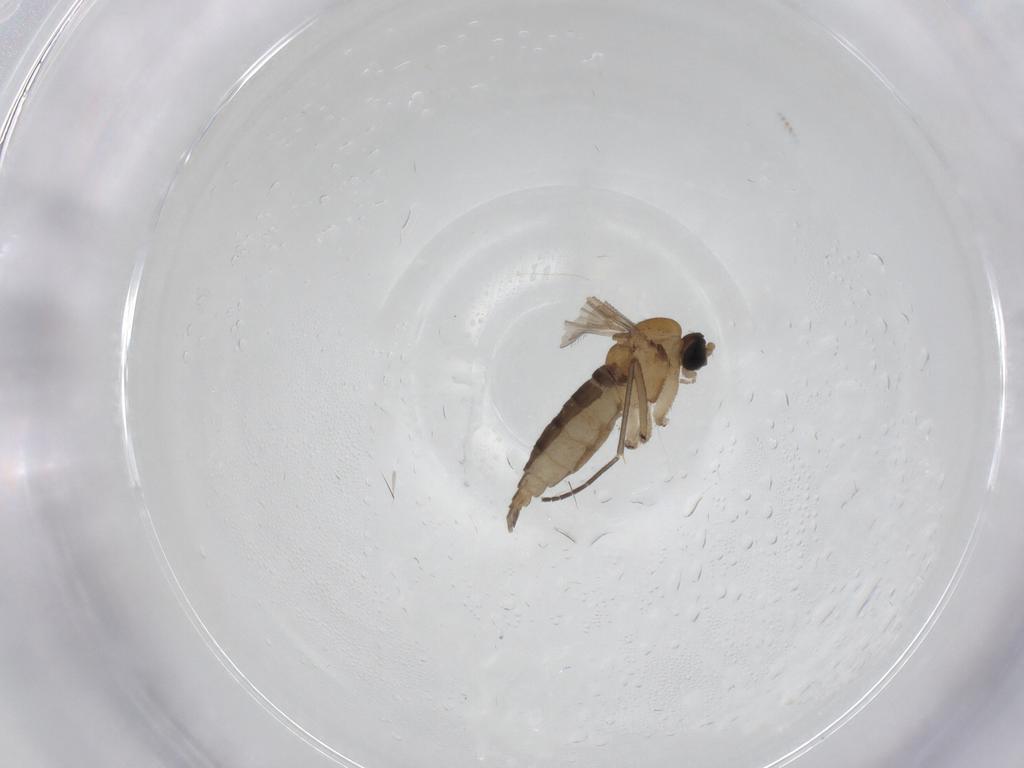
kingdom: Animalia
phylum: Arthropoda
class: Insecta
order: Diptera
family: Sciaridae
